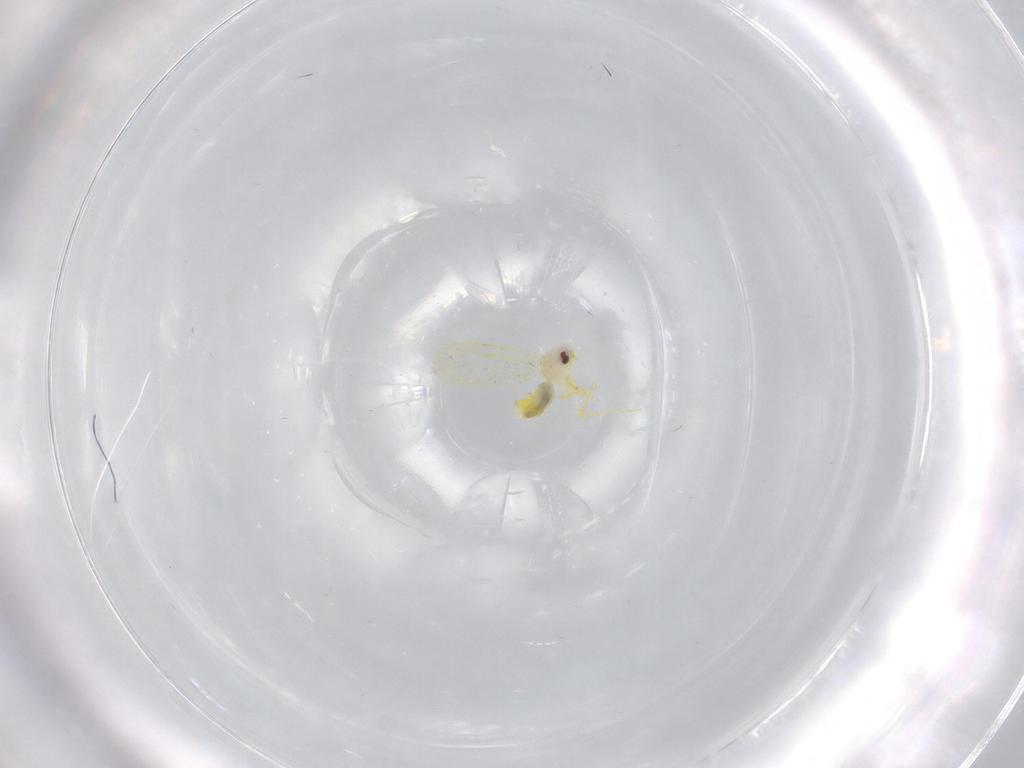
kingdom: Animalia
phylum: Arthropoda
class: Insecta
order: Hemiptera
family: Aleyrodidae
